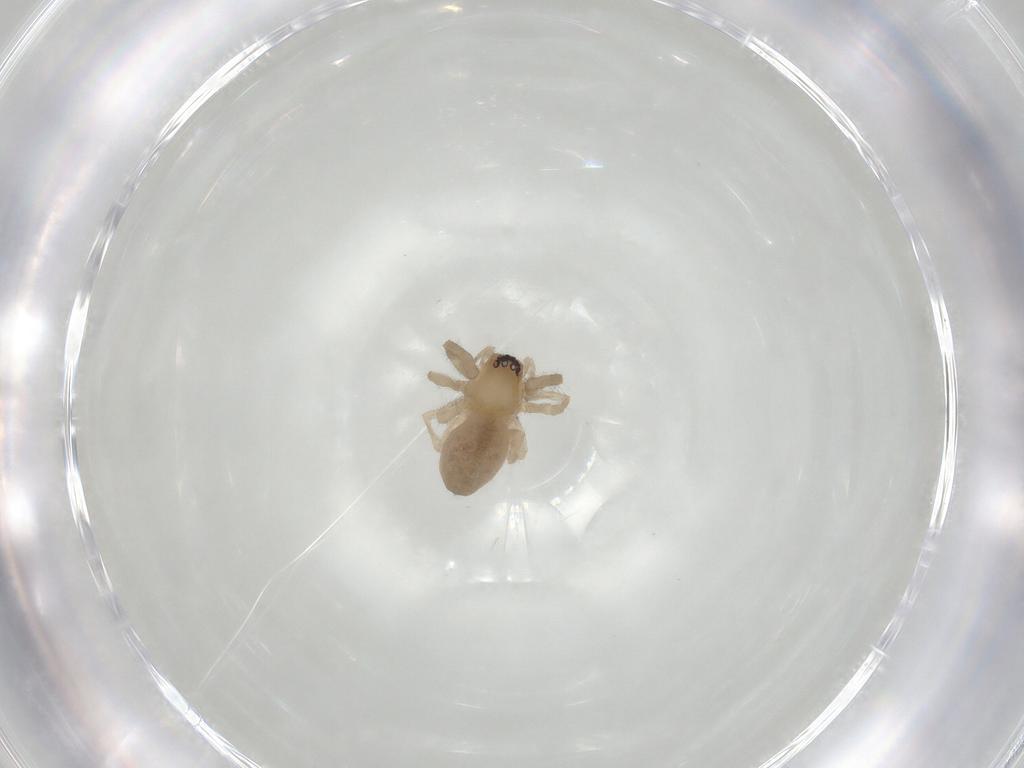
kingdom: Animalia
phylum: Arthropoda
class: Arachnida
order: Araneae
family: Trachelidae
